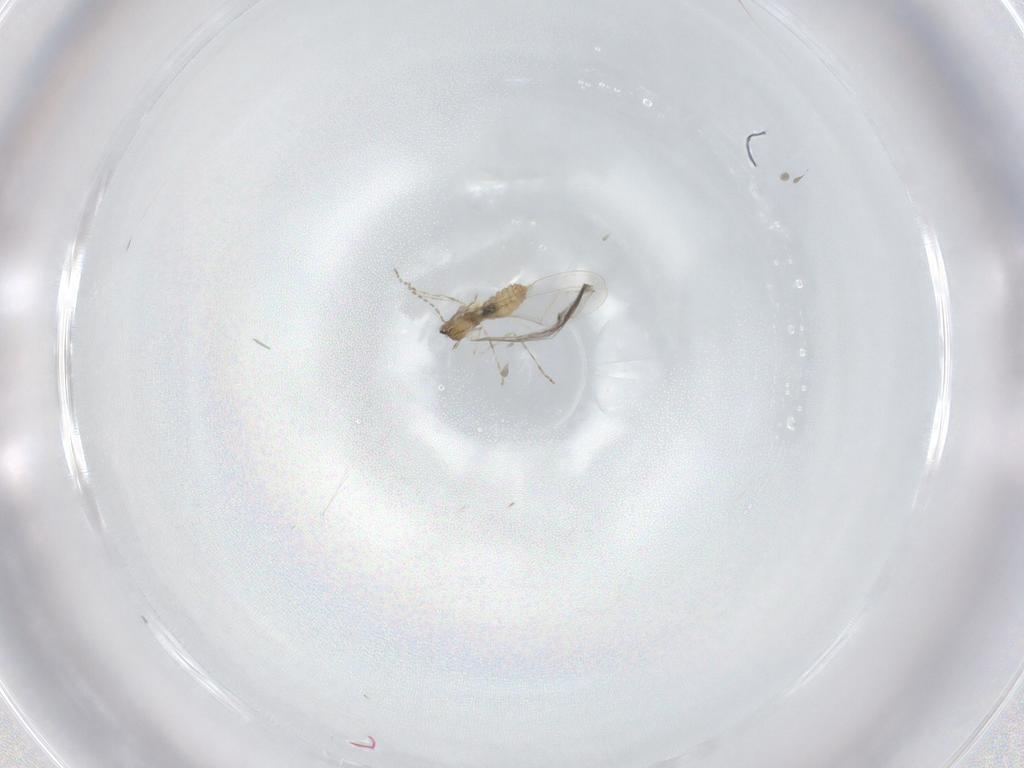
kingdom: Animalia
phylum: Arthropoda
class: Insecta
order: Diptera
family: Cecidomyiidae
